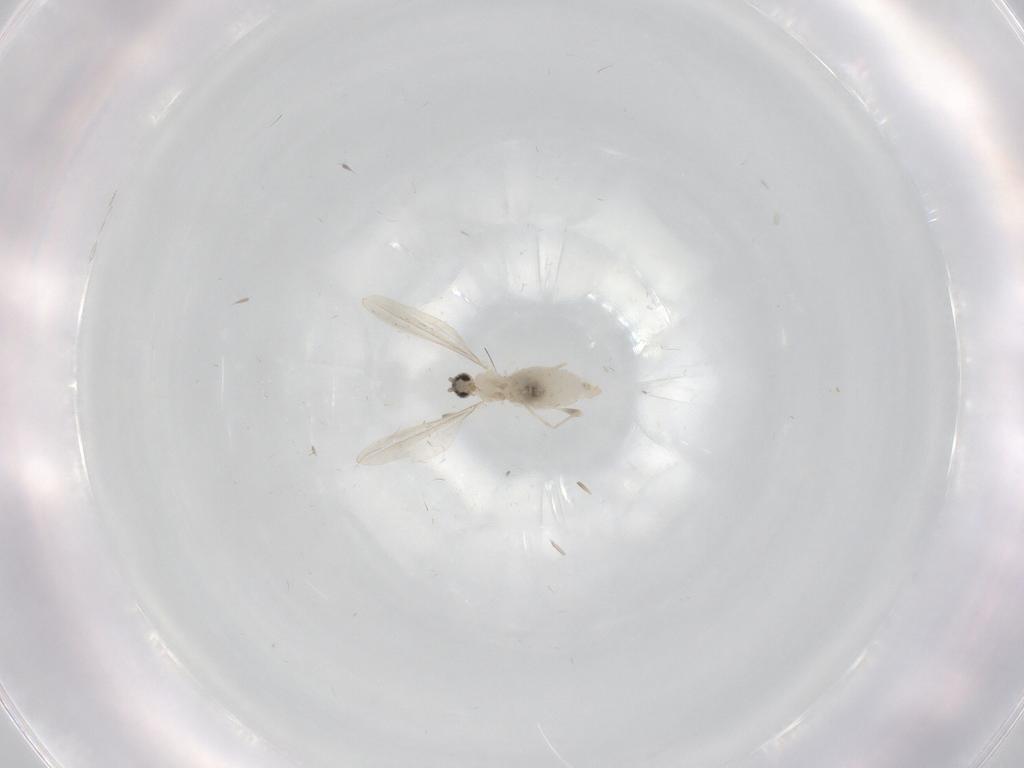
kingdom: Animalia
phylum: Arthropoda
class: Insecta
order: Diptera
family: Cecidomyiidae
